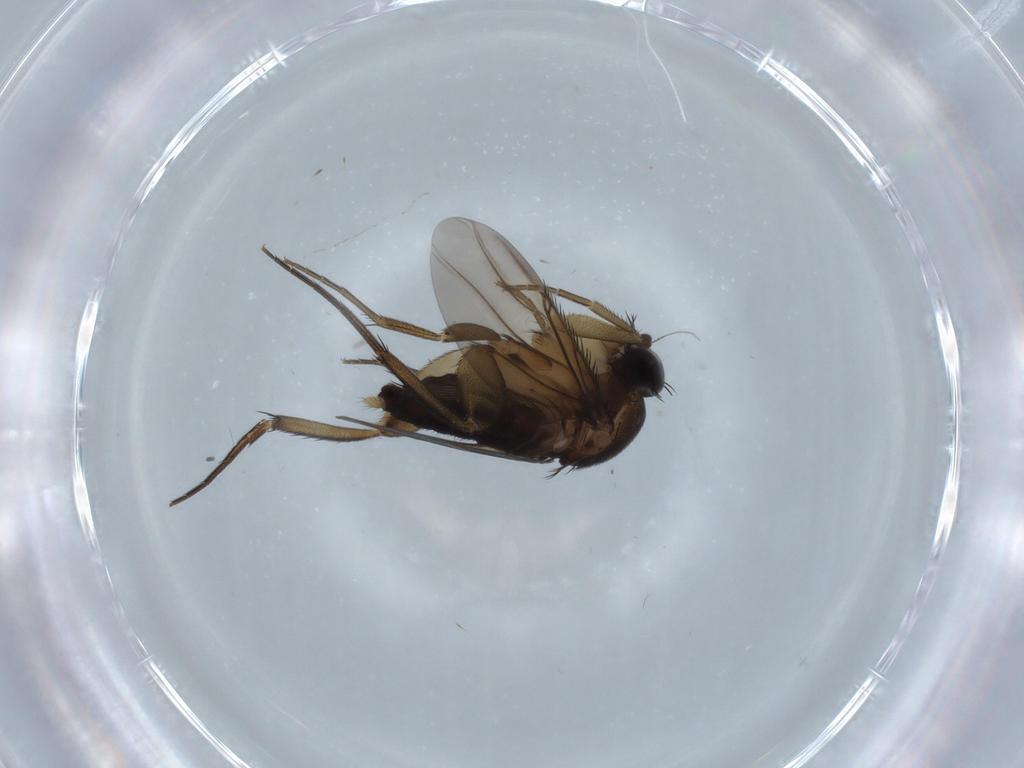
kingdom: Animalia
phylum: Arthropoda
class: Insecta
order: Diptera
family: Phoridae
